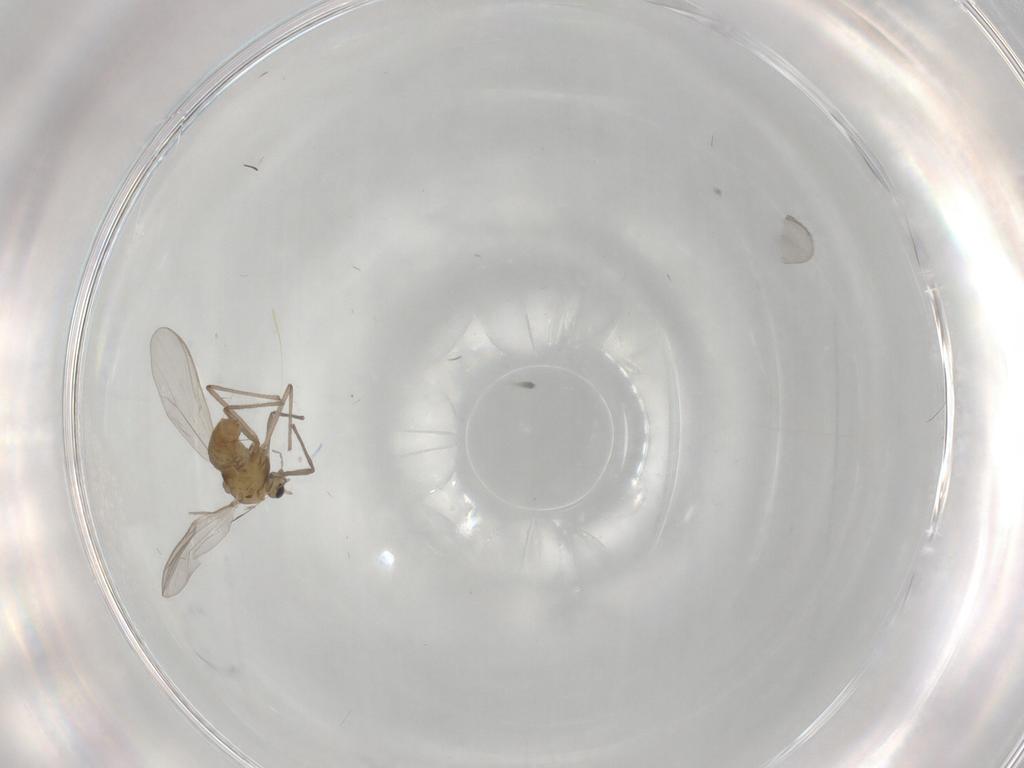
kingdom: Animalia
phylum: Arthropoda
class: Insecta
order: Diptera
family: Chironomidae
